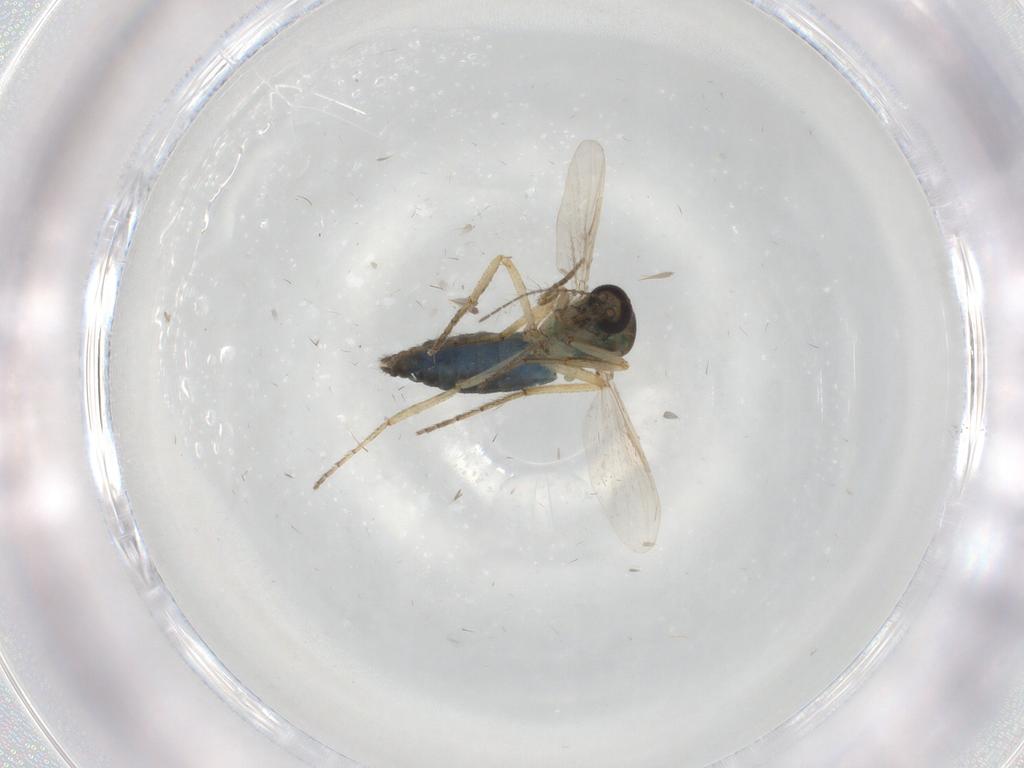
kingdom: Animalia
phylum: Arthropoda
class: Insecta
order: Diptera
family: Ceratopogonidae
